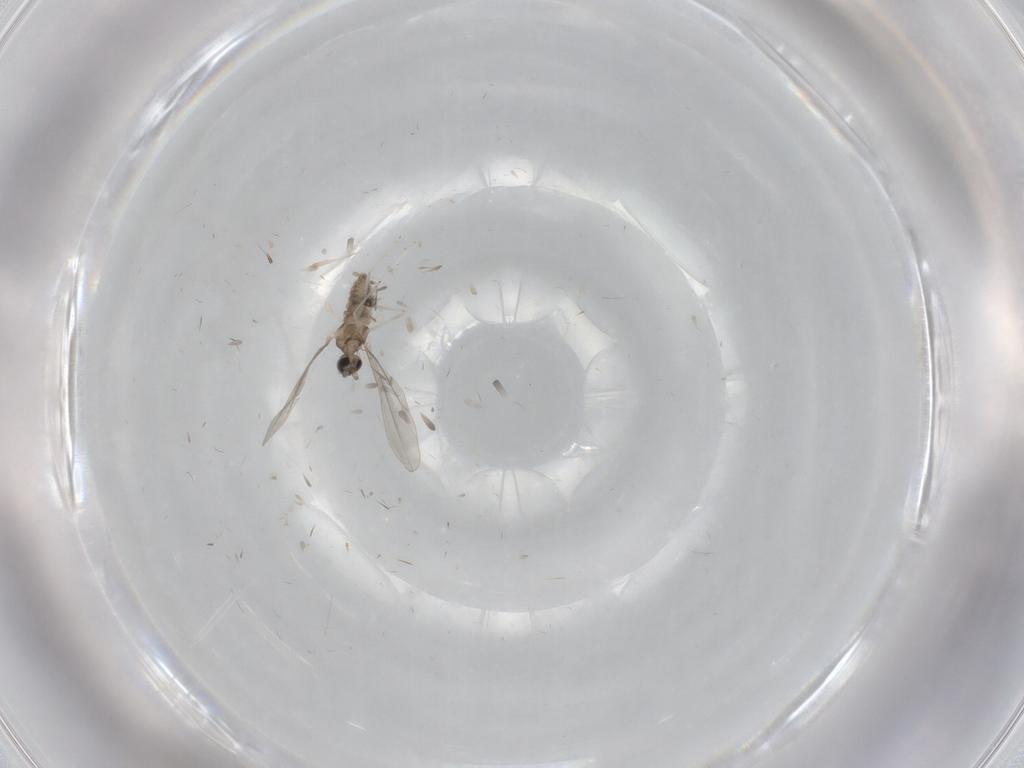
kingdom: Animalia
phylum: Arthropoda
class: Insecta
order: Diptera
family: Cecidomyiidae
